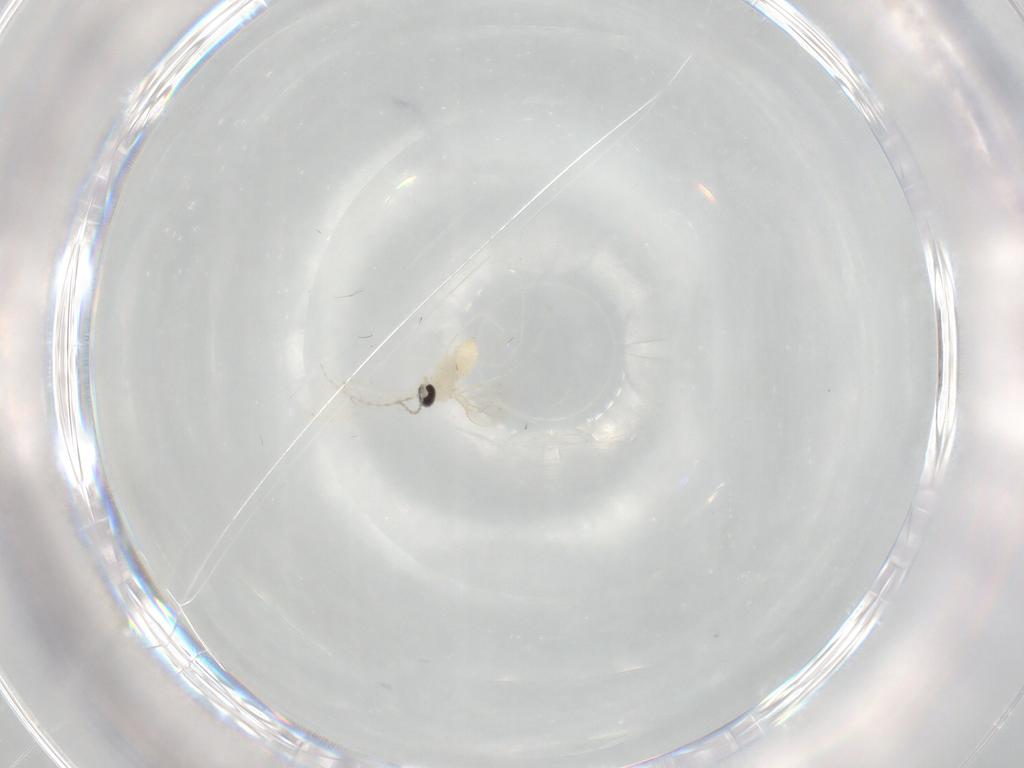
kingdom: Animalia
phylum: Arthropoda
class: Insecta
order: Diptera
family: Cecidomyiidae
